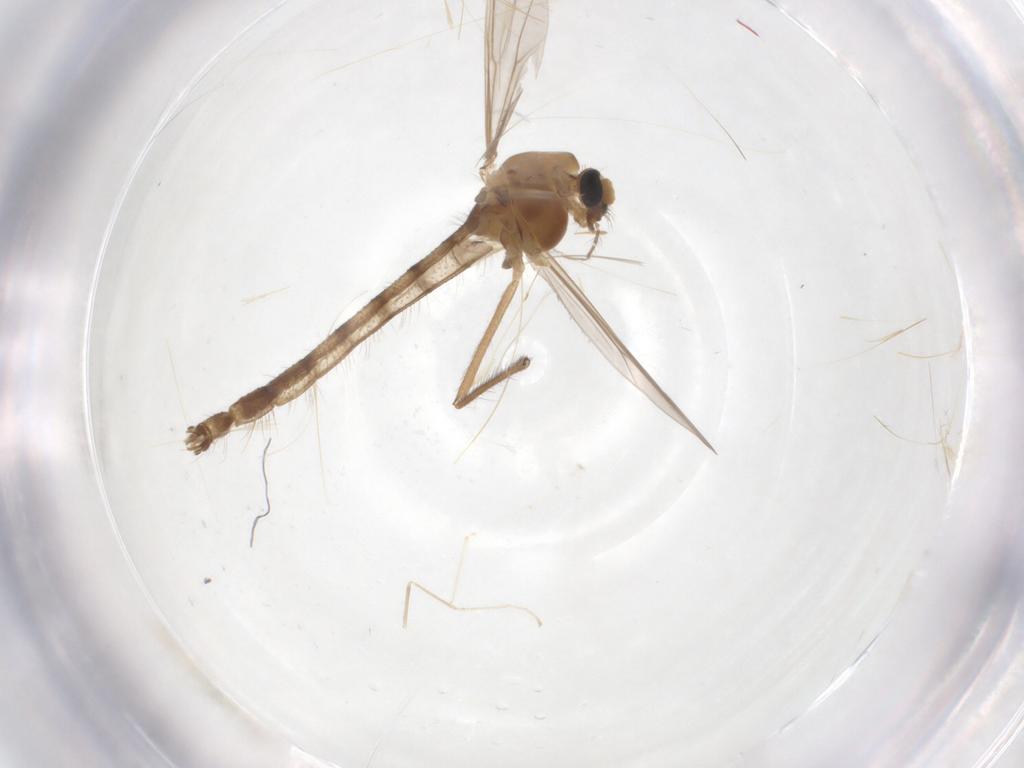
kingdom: Animalia
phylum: Arthropoda
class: Insecta
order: Diptera
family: Chironomidae
